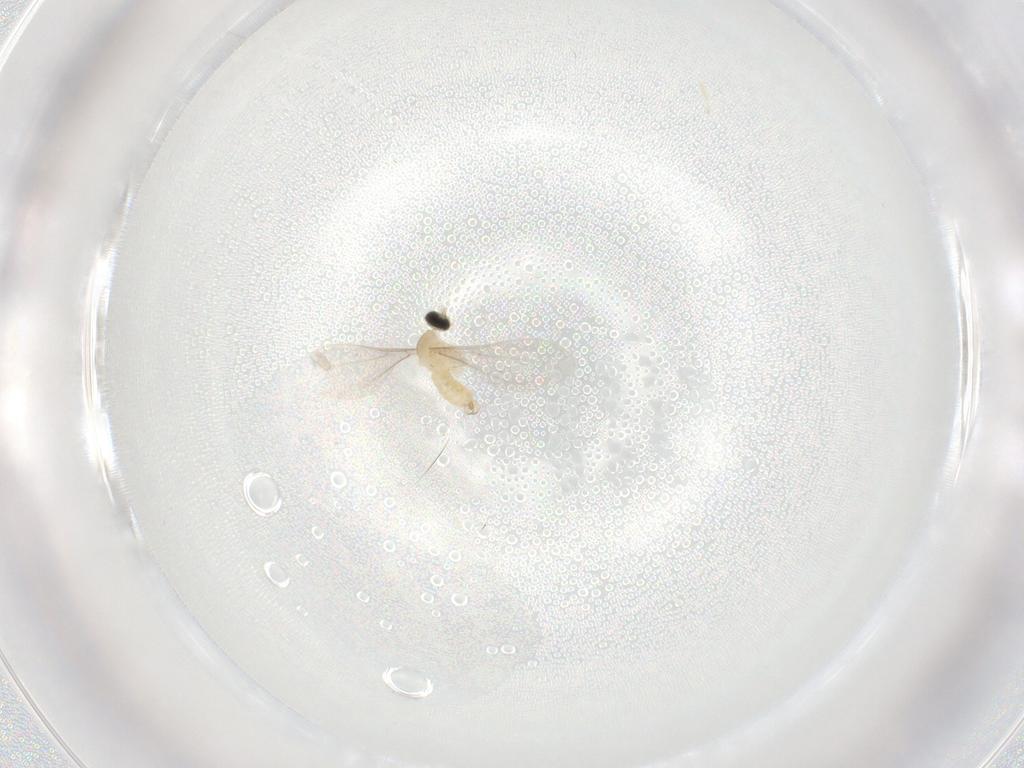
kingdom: Animalia
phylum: Arthropoda
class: Insecta
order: Diptera
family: Cecidomyiidae
